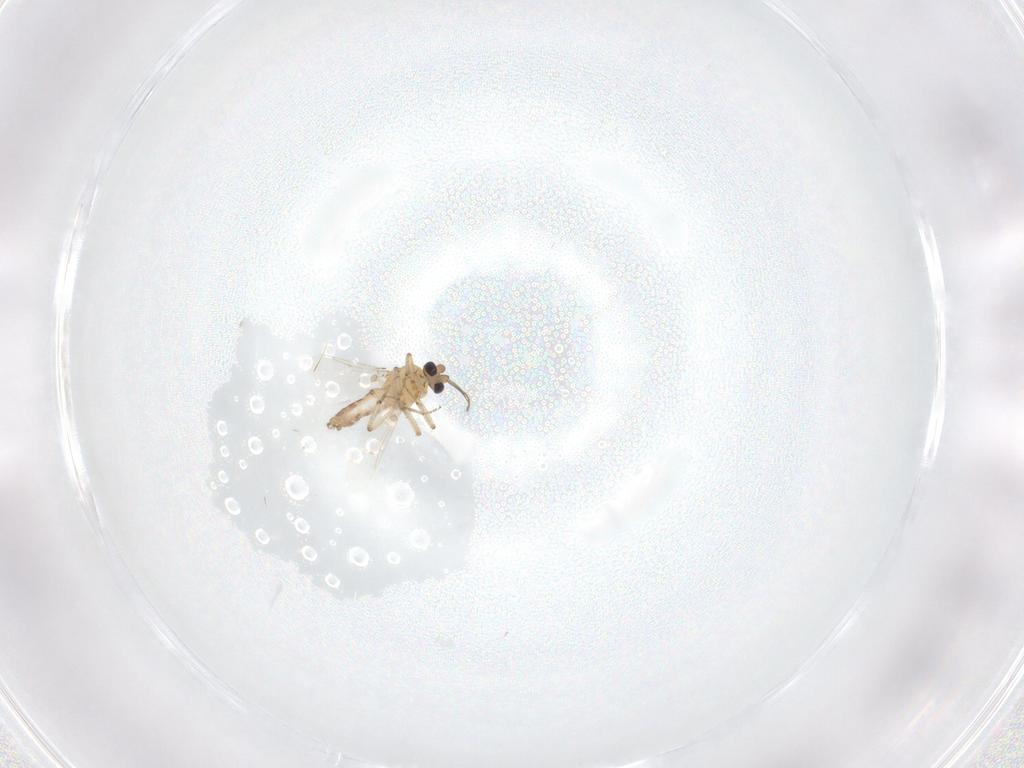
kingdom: Animalia
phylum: Arthropoda
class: Insecta
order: Diptera
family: Ceratopogonidae
